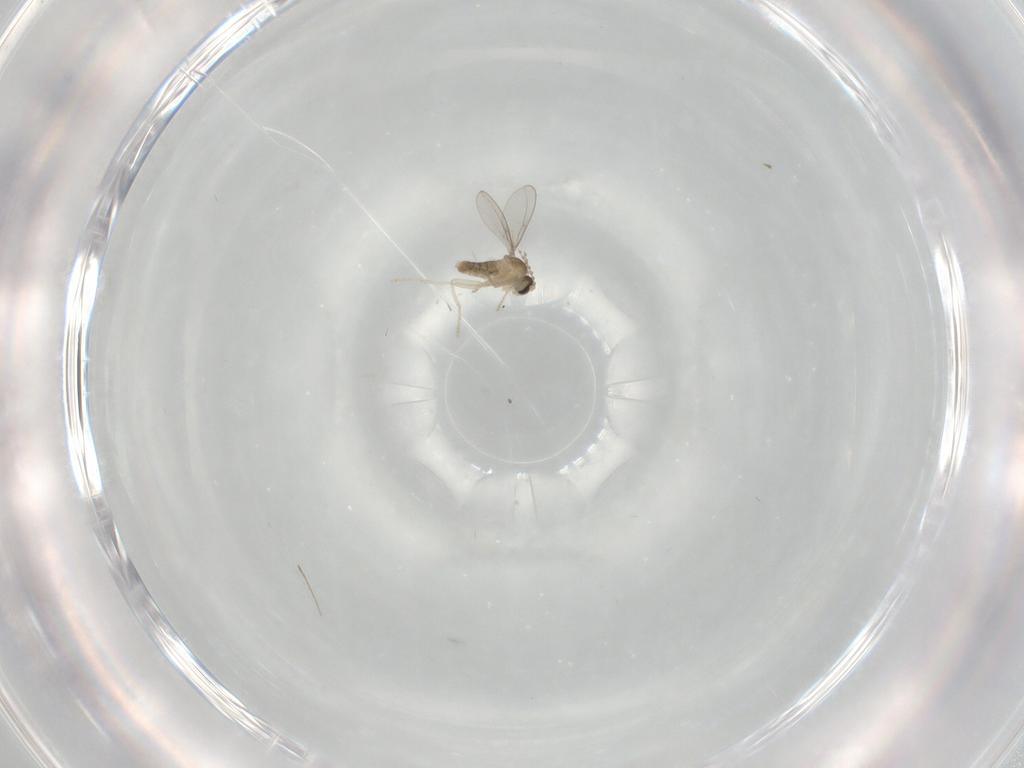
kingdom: Animalia
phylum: Arthropoda
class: Insecta
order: Diptera
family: Cecidomyiidae
